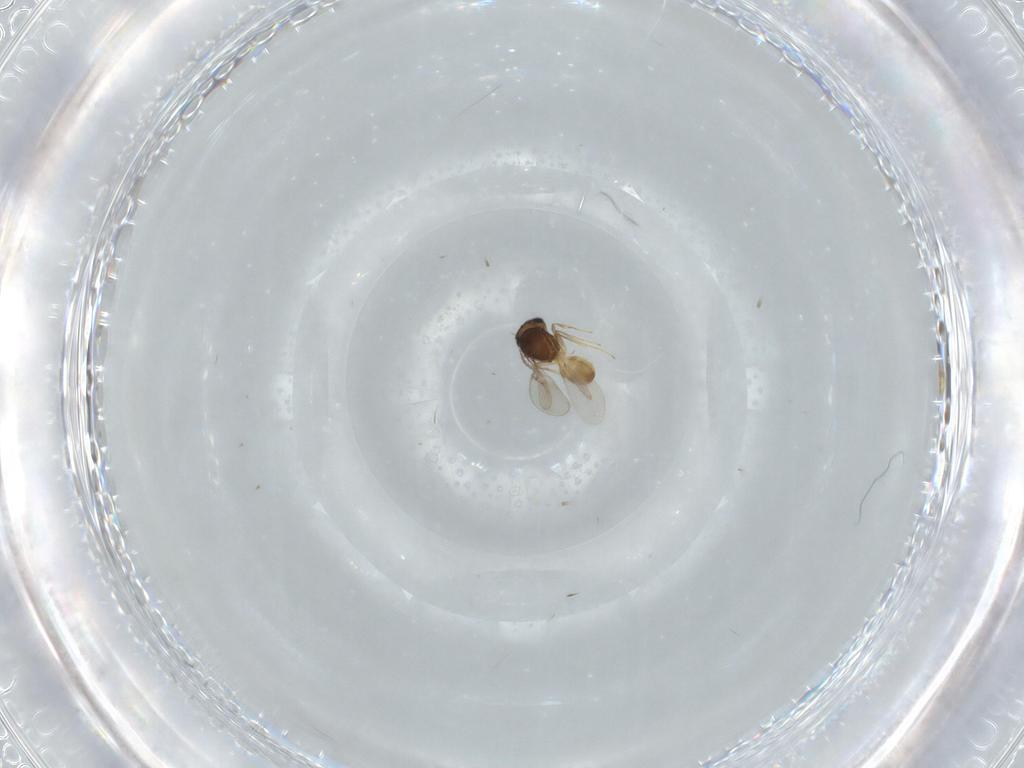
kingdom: Animalia
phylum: Arthropoda
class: Insecta
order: Hymenoptera
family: Scelionidae
